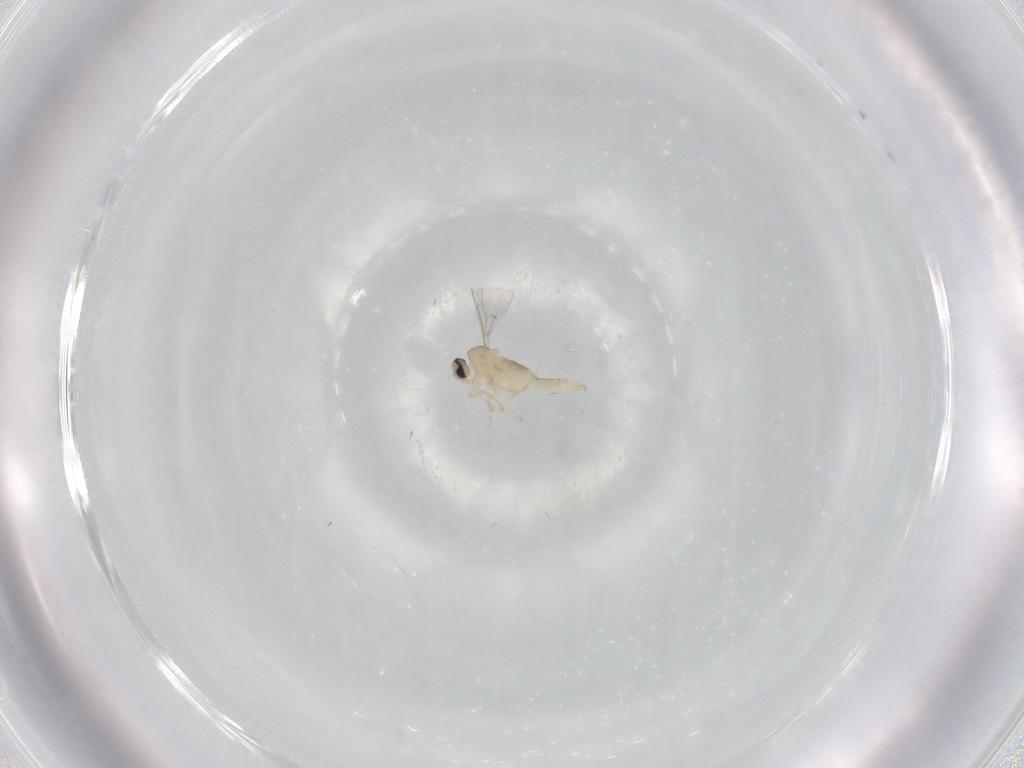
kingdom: Animalia
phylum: Arthropoda
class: Insecta
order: Diptera
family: Cecidomyiidae
